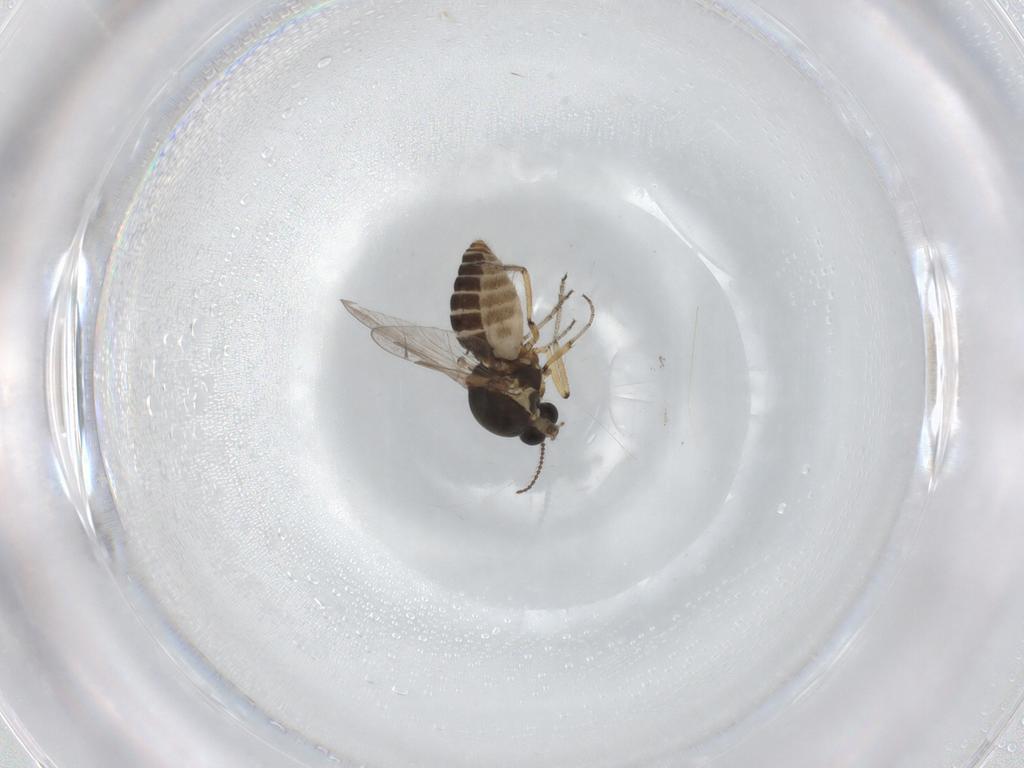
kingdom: Animalia
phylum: Arthropoda
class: Insecta
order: Diptera
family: Ceratopogonidae
